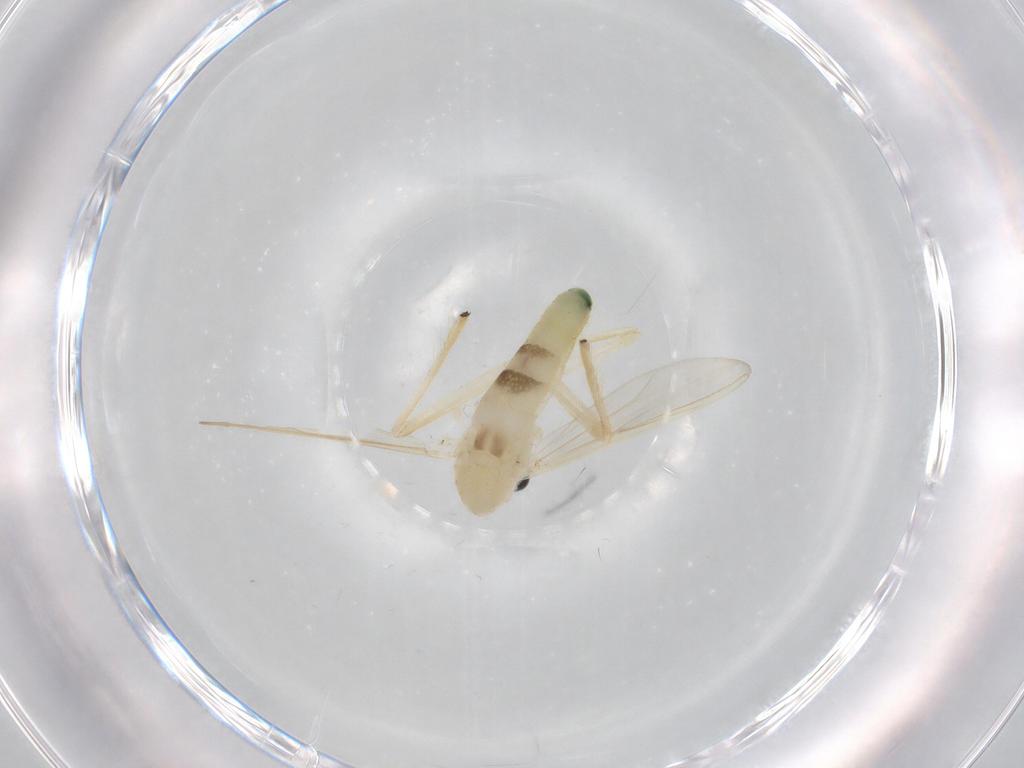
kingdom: Animalia
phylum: Arthropoda
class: Insecta
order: Diptera
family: Chironomidae
